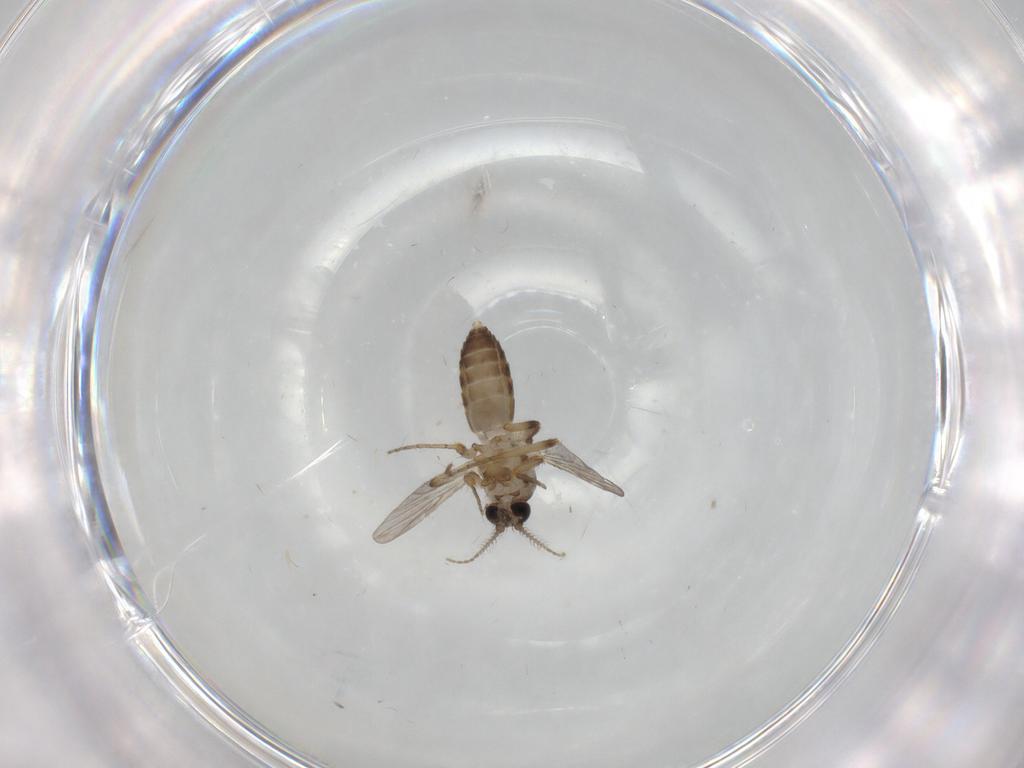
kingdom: Animalia
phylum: Arthropoda
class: Insecta
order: Diptera
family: Ceratopogonidae
